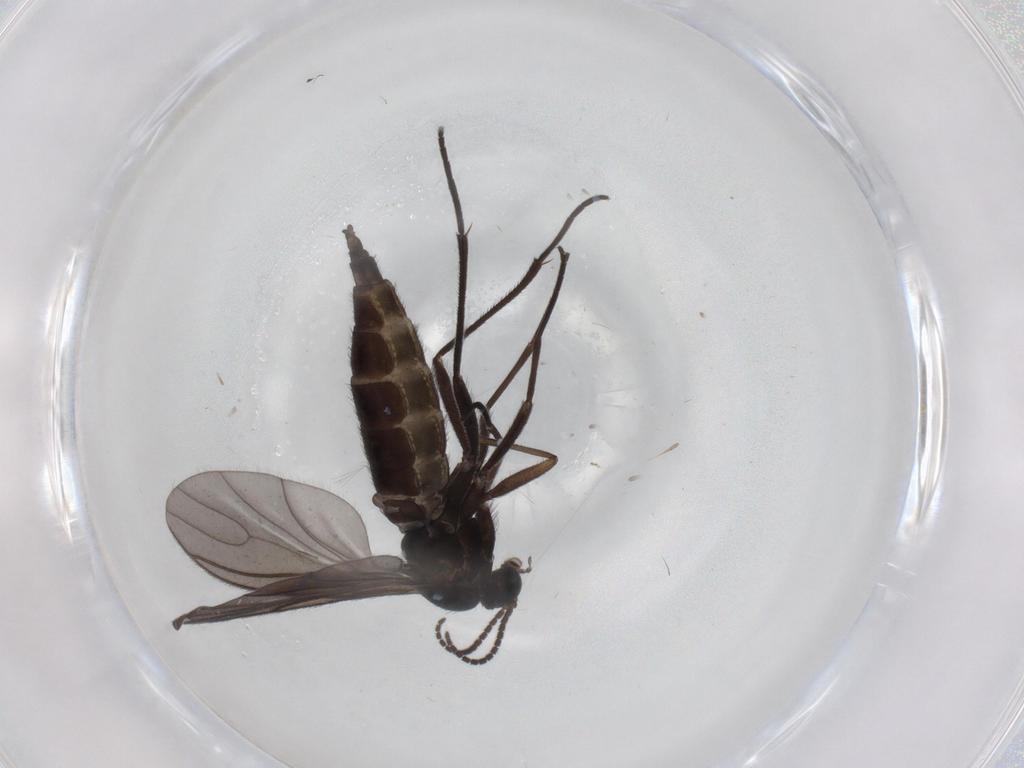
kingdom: Animalia
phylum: Arthropoda
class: Insecta
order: Diptera
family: Sciaridae
